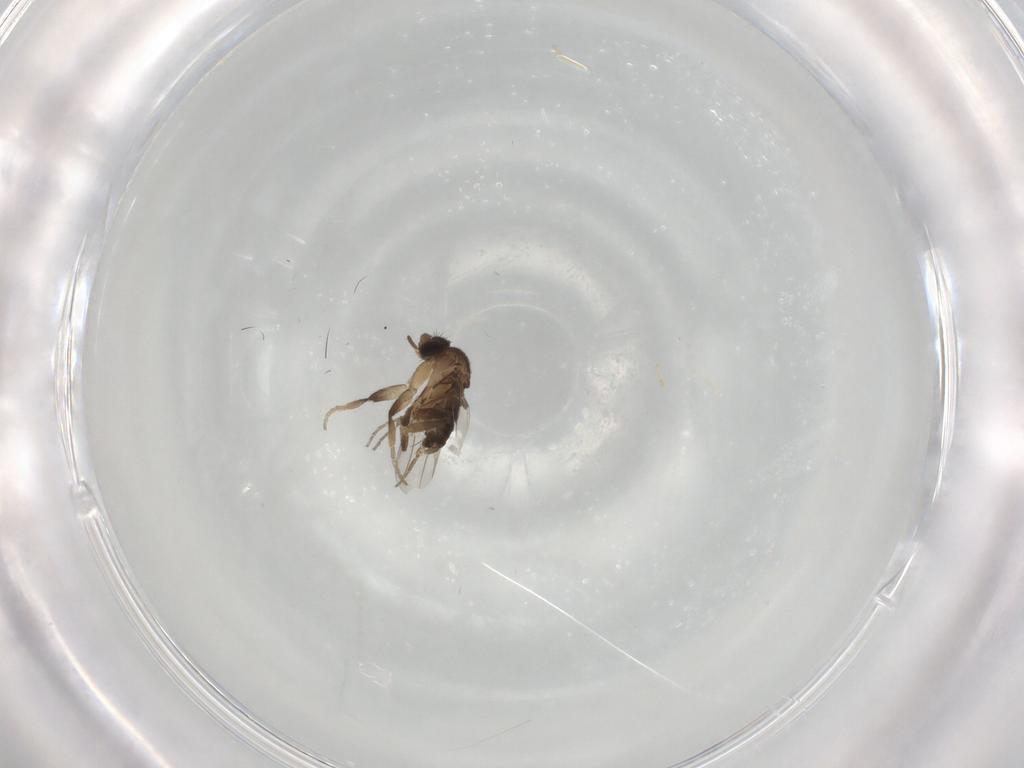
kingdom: Animalia
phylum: Arthropoda
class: Insecta
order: Diptera
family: Phoridae
